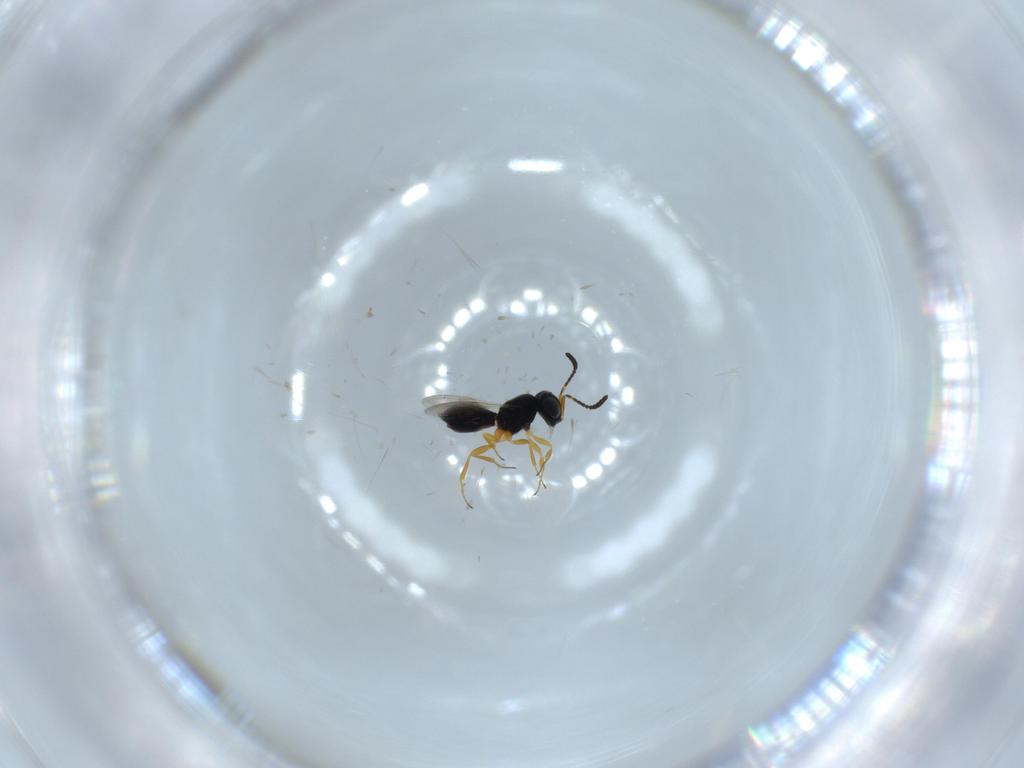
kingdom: Animalia
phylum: Arthropoda
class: Insecta
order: Hymenoptera
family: Scelionidae
